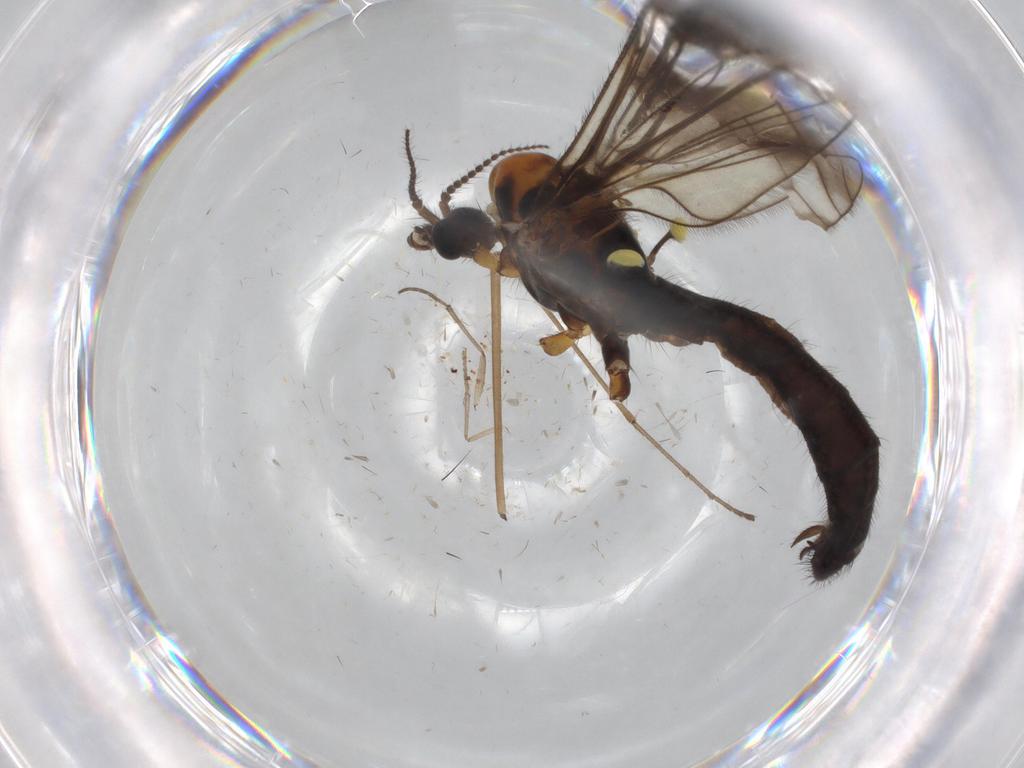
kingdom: Animalia
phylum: Arthropoda
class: Insecta
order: Diptera
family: Limoniidae
